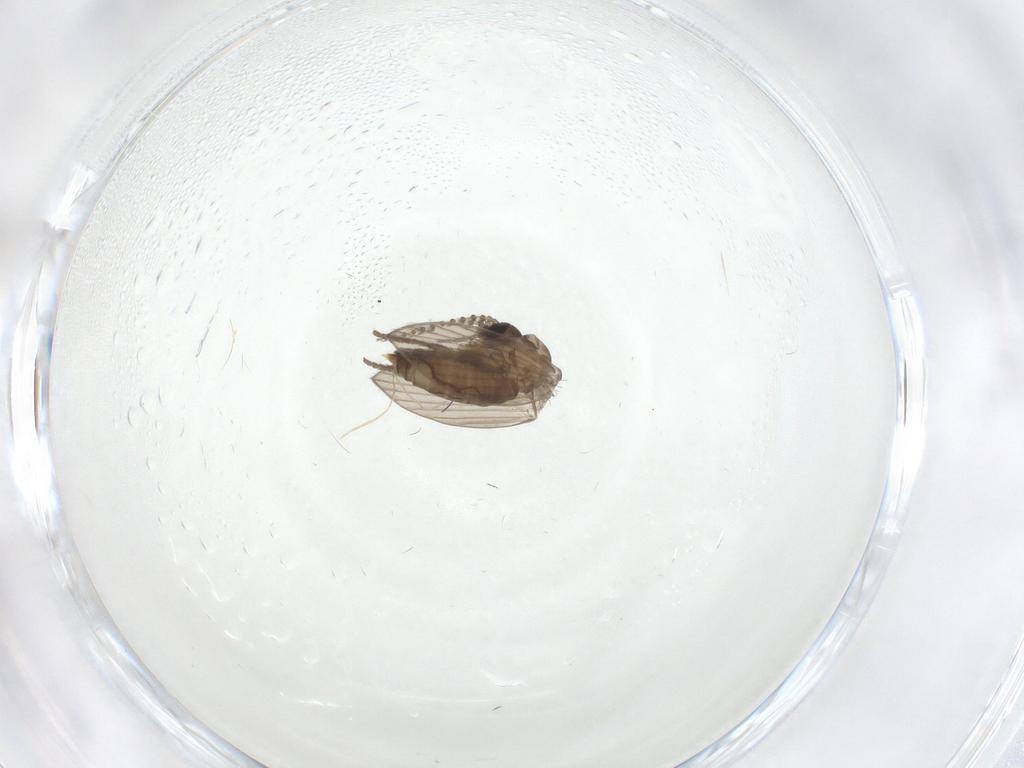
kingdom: Animalia
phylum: Arthropoda
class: Insecta
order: Diptera
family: Psychodidae
